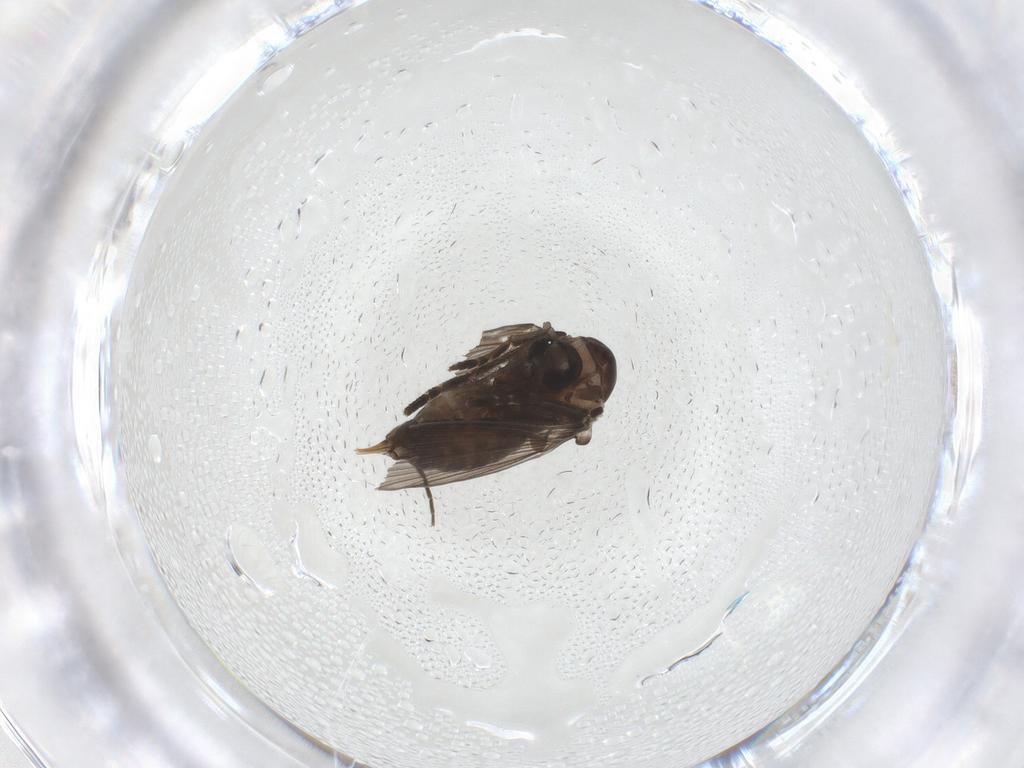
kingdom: Animalia
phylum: Arthropoda
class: Insecta
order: Diptera
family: Psychodidae
